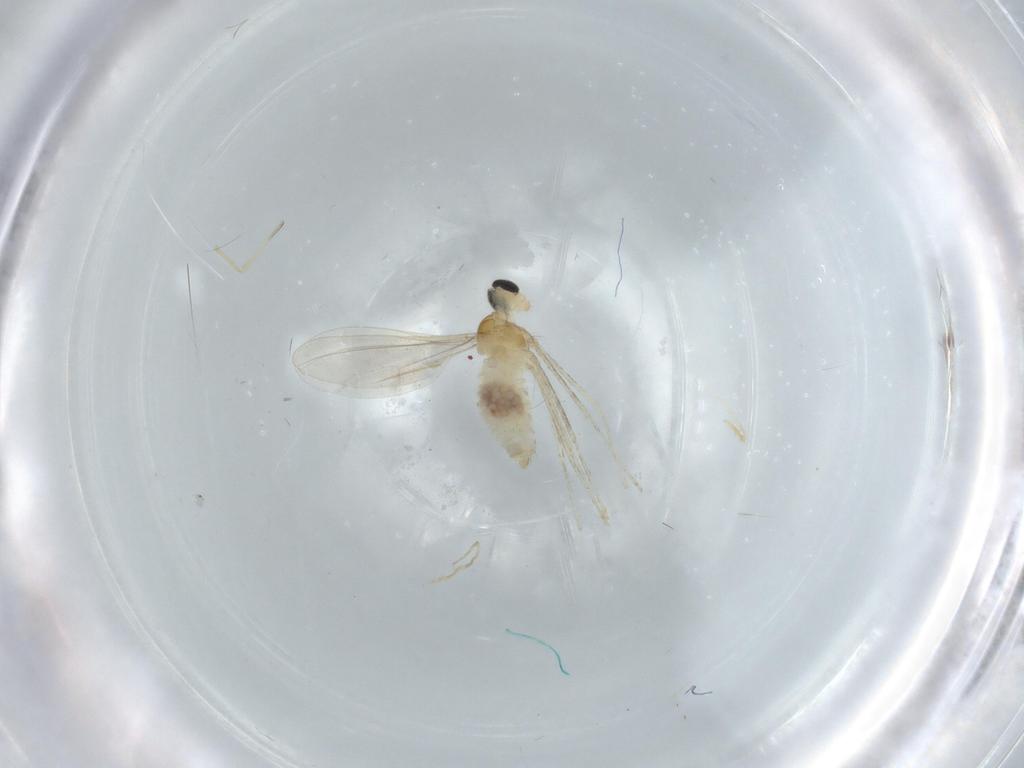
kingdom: Animalia
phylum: Arthropoda
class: Insecta
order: Diptera
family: Cecidomyiidae
